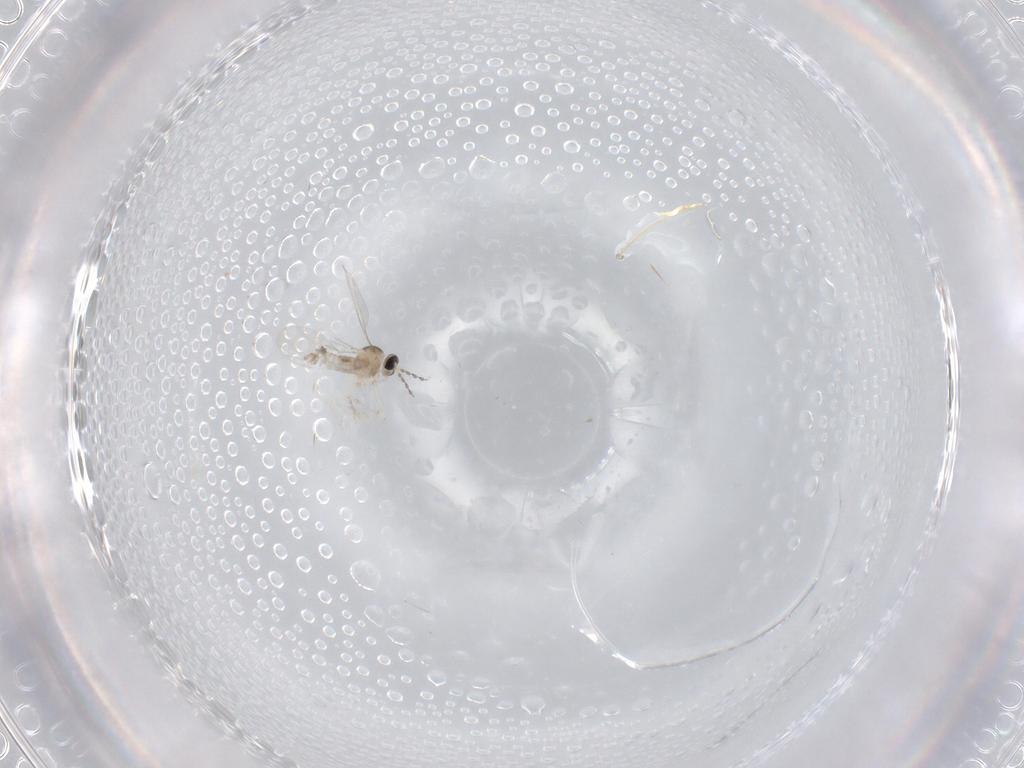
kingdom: Animalia
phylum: Arthropoda
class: Insecta
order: Diptera
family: Cecidomyiidae
